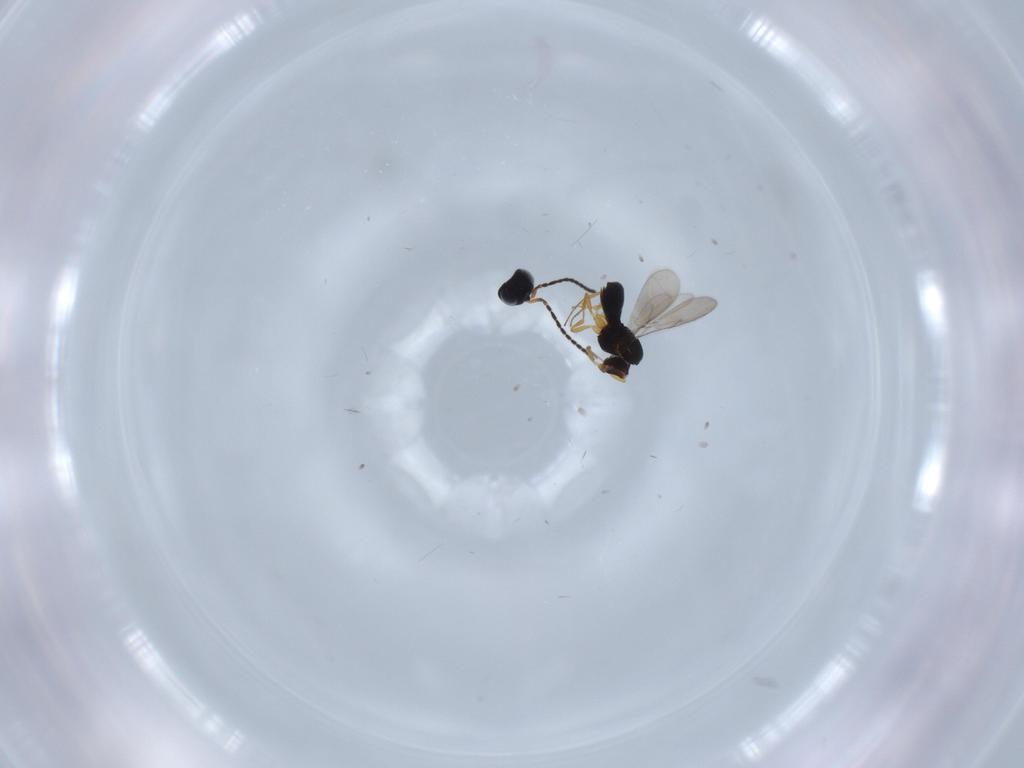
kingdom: Animalia
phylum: Arthropoda
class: Insecta
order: Hymenoptera
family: Scelionidae
